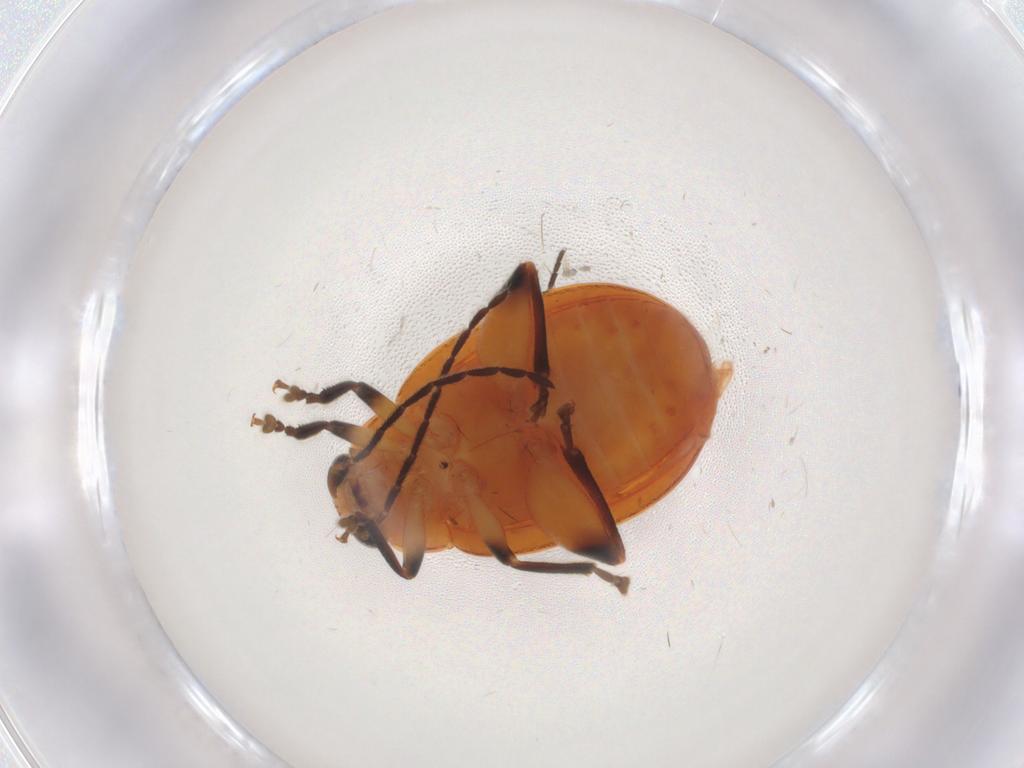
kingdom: Animalia
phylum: Arthropoda
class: Insecta
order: Coleoptera
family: Chrysomelidae
